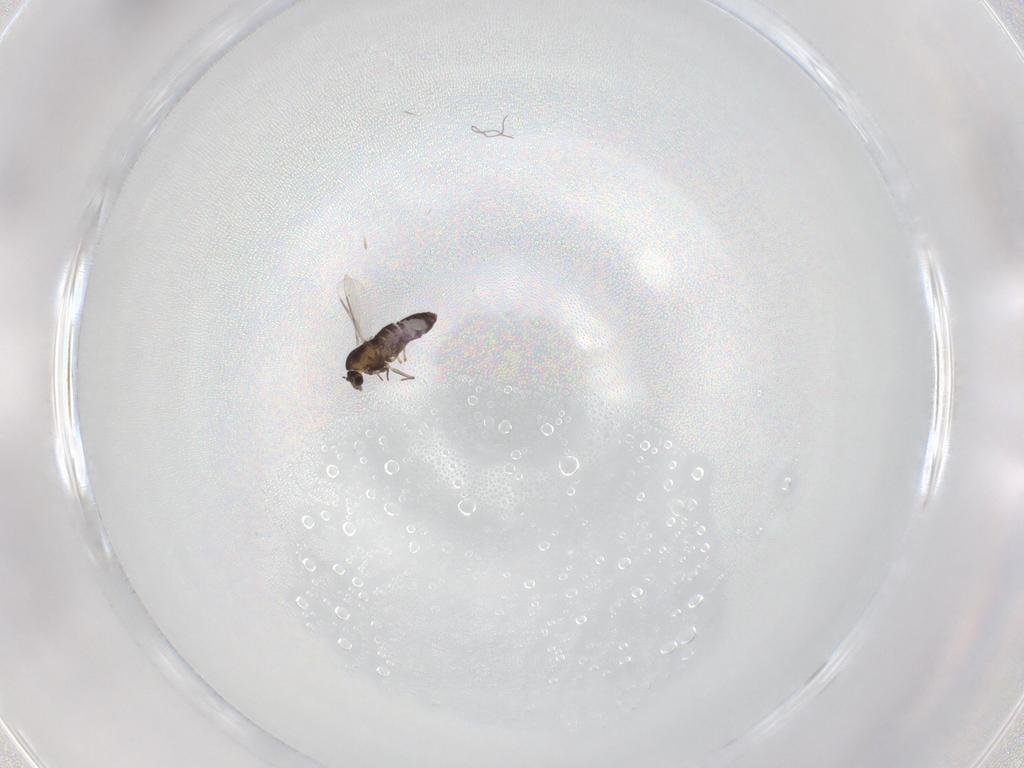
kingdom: Animalia
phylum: Arthropoda
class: Insecta
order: Diptera
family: Chironomidae
